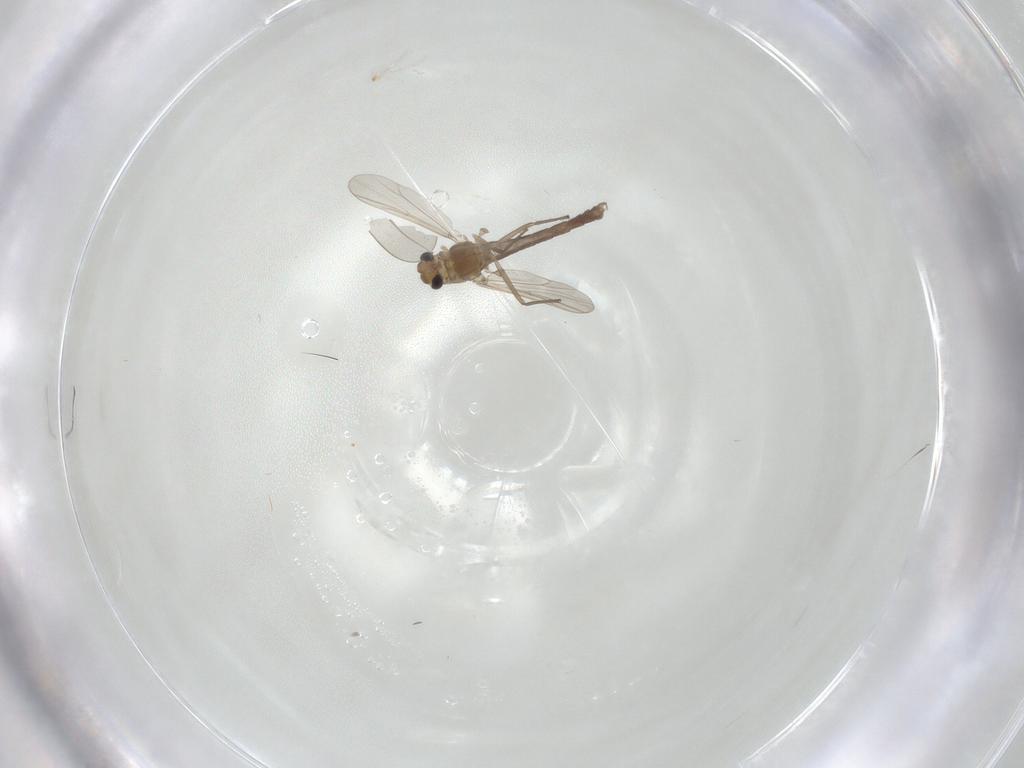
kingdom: Animalia
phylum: Arthropoda
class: Insecta
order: Diptera
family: Chironomidae
